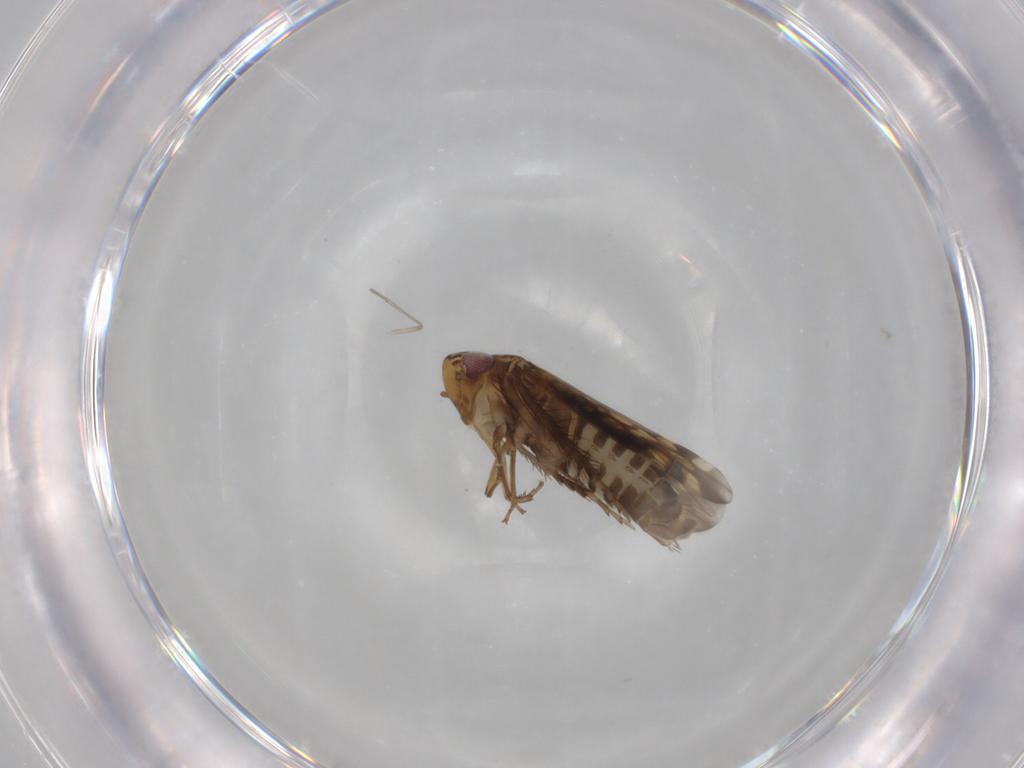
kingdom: Animalia
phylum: Arthropoda
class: Insecta
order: Hemiptera
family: Cicadellidae
